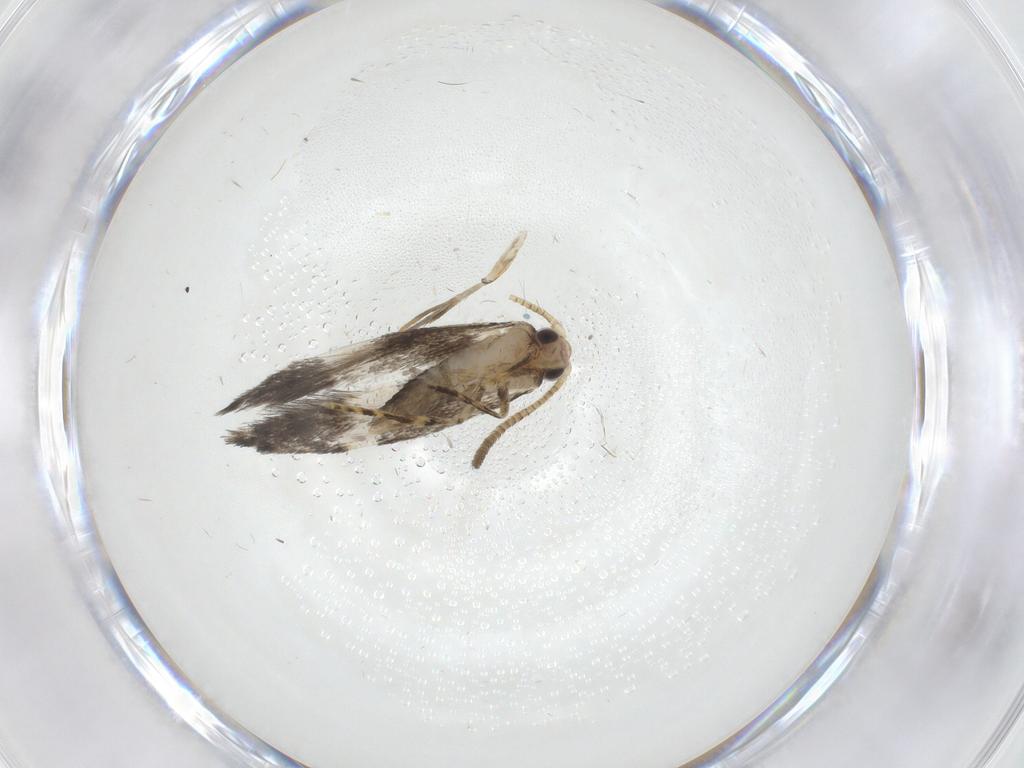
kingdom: Animalia
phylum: Arthropoda
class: Insecta
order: Lepidoptera
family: Tineidae
